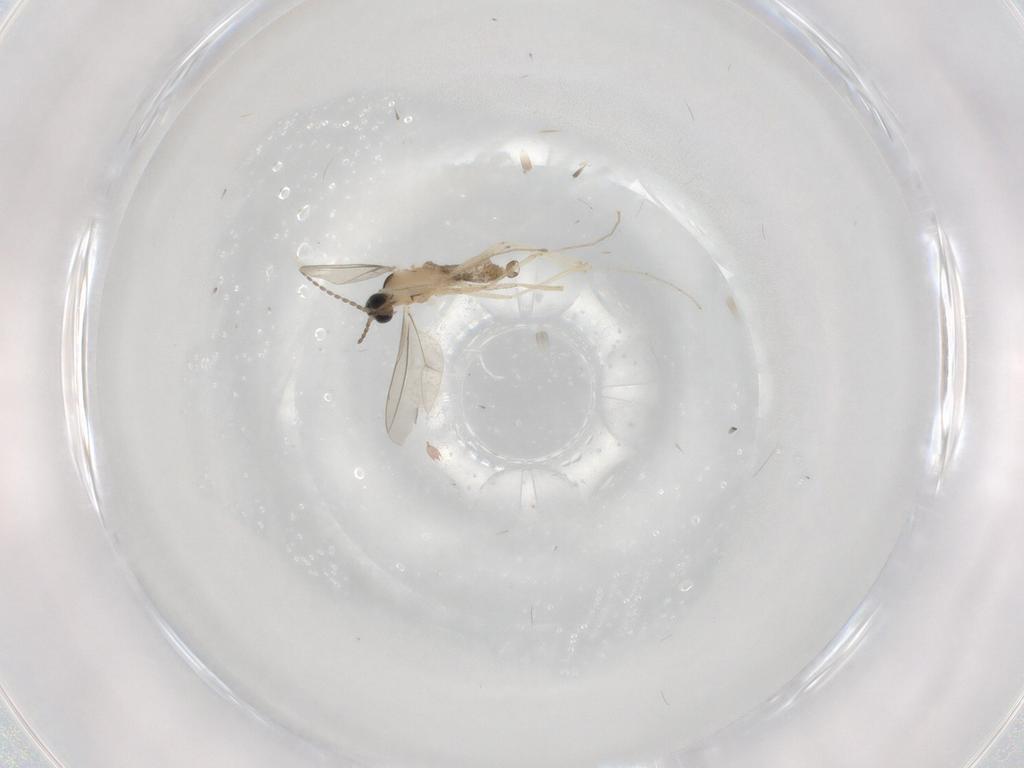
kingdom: Animalia
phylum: Arthropoda
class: Insecta
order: Diptera
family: Cecidomyiidae
